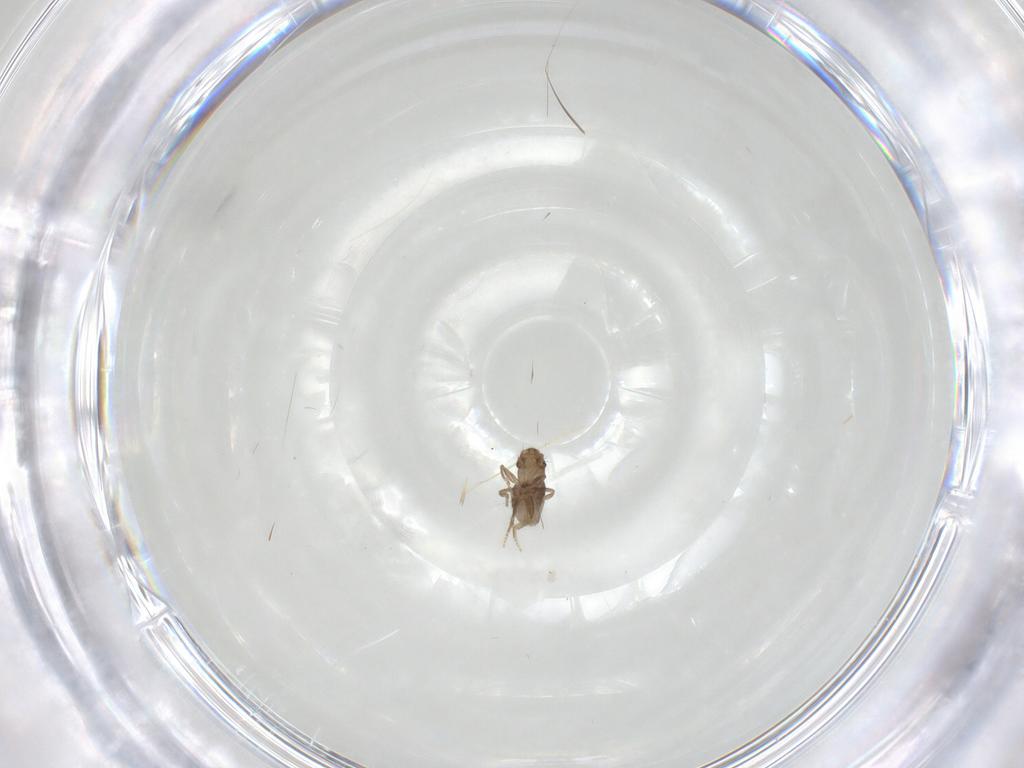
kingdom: Animalia
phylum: Arthropoda
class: Insecta
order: Diptera
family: Phoridae
